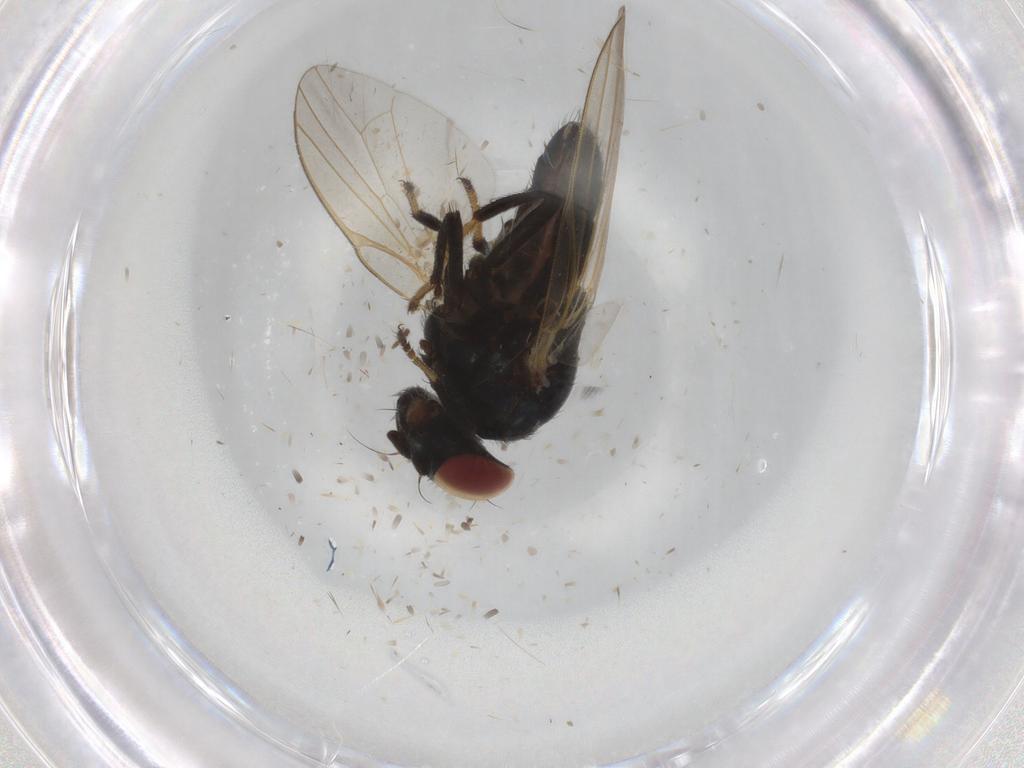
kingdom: Animalia
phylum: Arthropoda
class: Insecta
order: Diptera
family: Sciaridae
